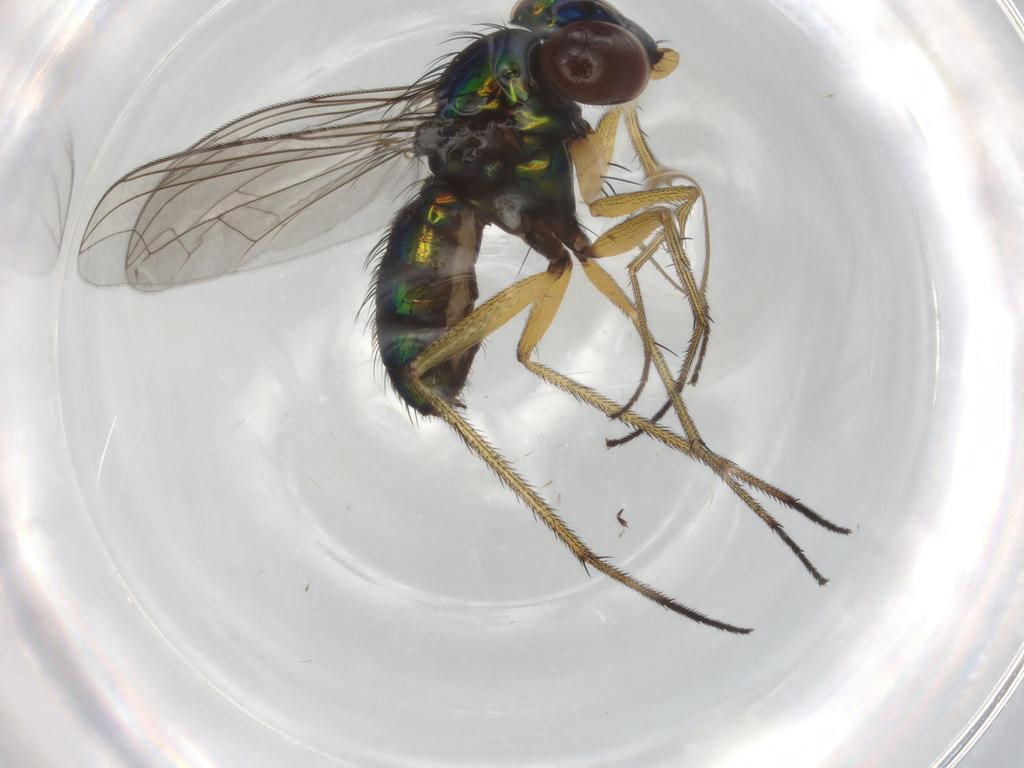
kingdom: Animalia
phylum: Arthropoda
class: Insecta
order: Diptera
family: Dolichopodidae
